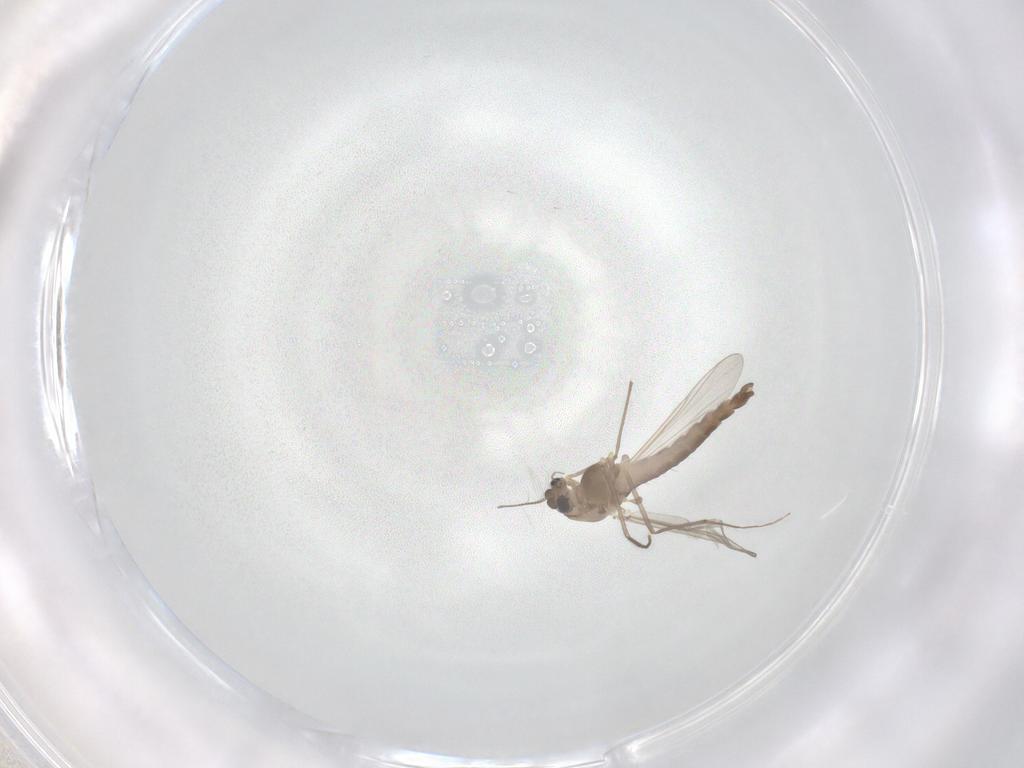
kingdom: Animalia
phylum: Arthropoda
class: Insecta
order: Diptera
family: Chironomidae
